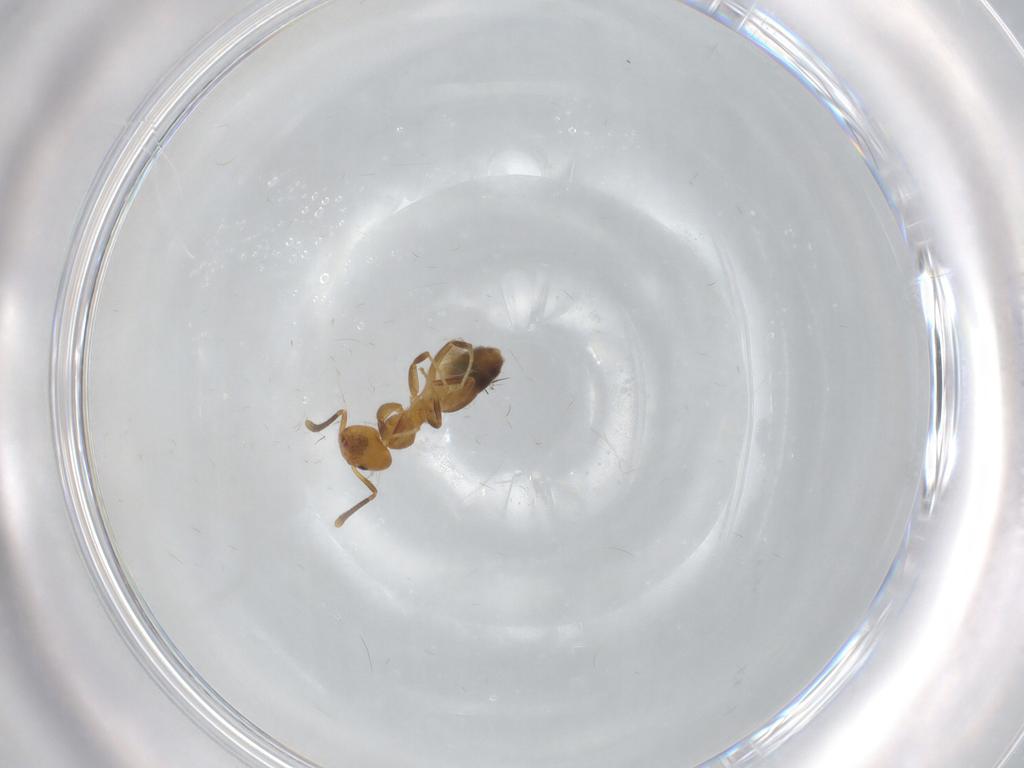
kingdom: Animalia
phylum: Arthropoda
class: Insecta
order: Hymenoptera
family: Formicidae
